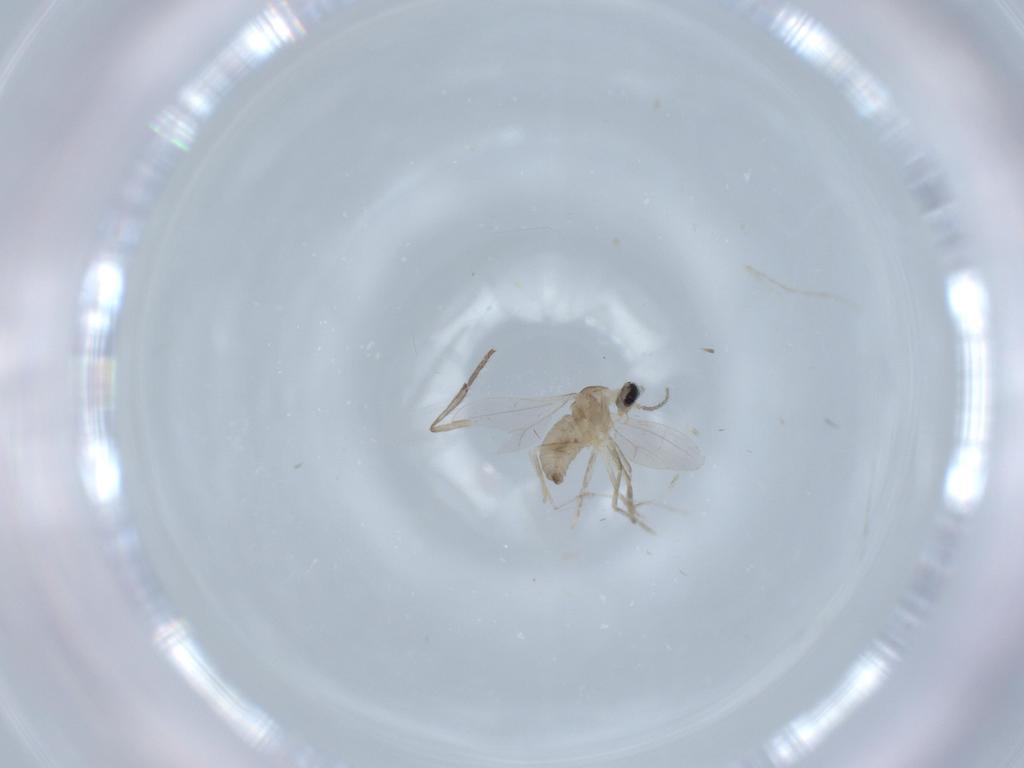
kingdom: Animalia
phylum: Arthropoda
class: Insecta
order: Diptera
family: Cecidomyiidae
